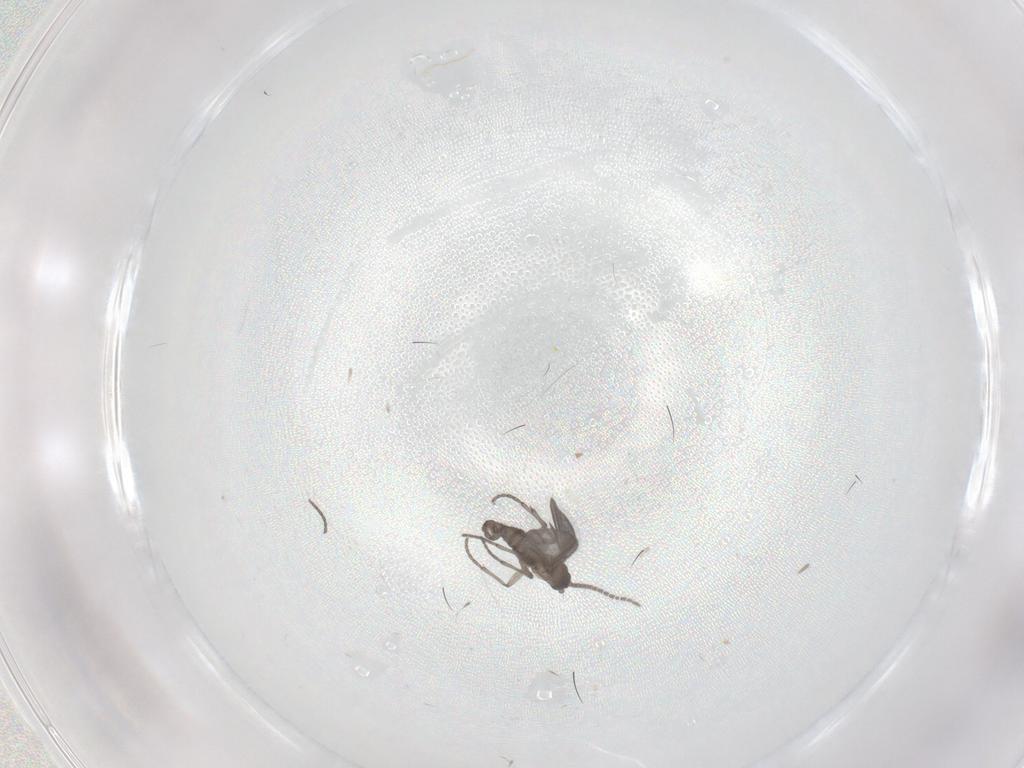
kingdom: Animalia
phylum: Arthropoda
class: Insecta
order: Diptera
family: Sciaridae
